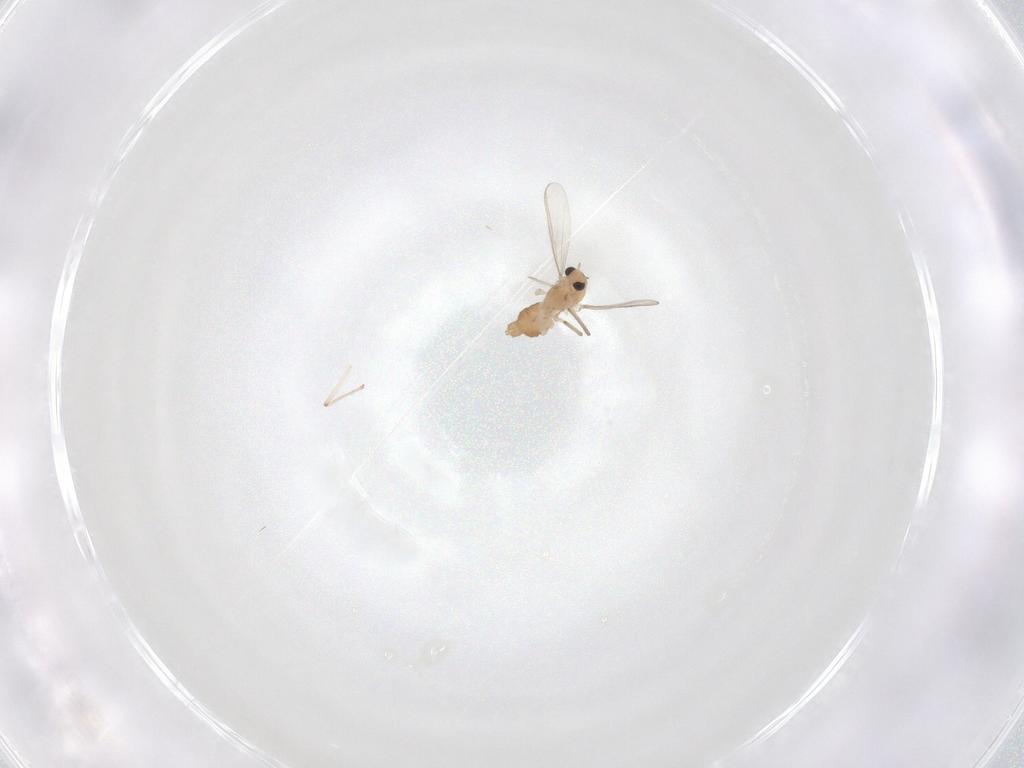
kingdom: Animalia
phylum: Arthropoda
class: Insecta
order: Diptera
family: Chironomidae
